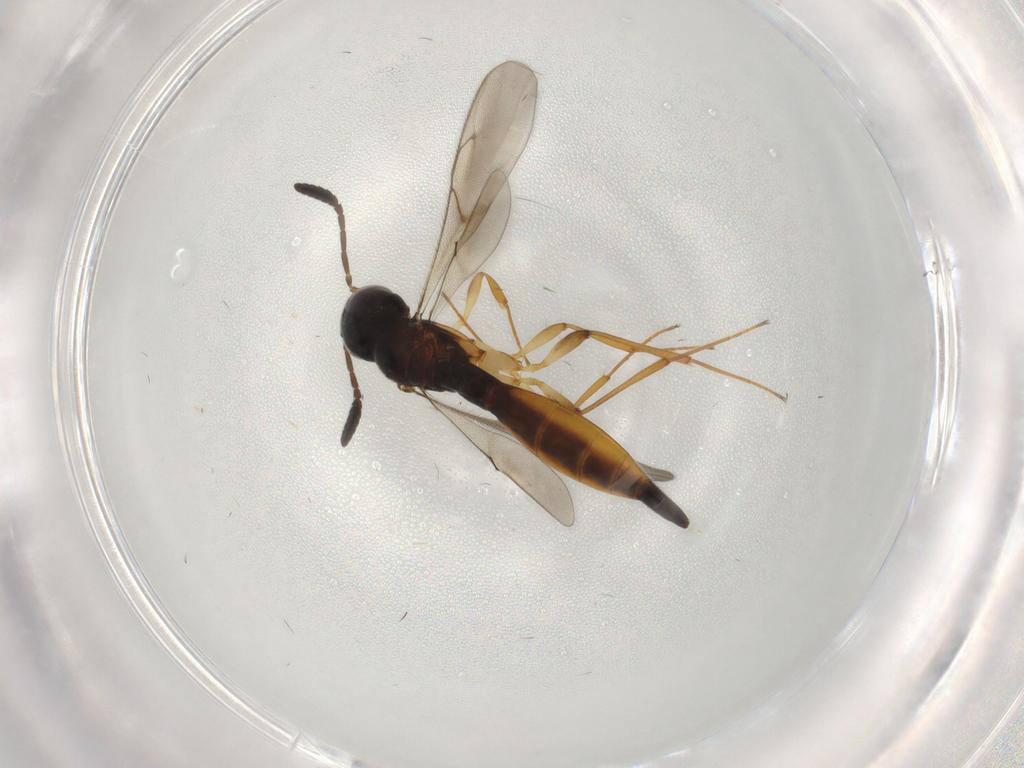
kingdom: Animalia
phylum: Arthropoda
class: Insecta
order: Hymenoptera
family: Scelionidae
